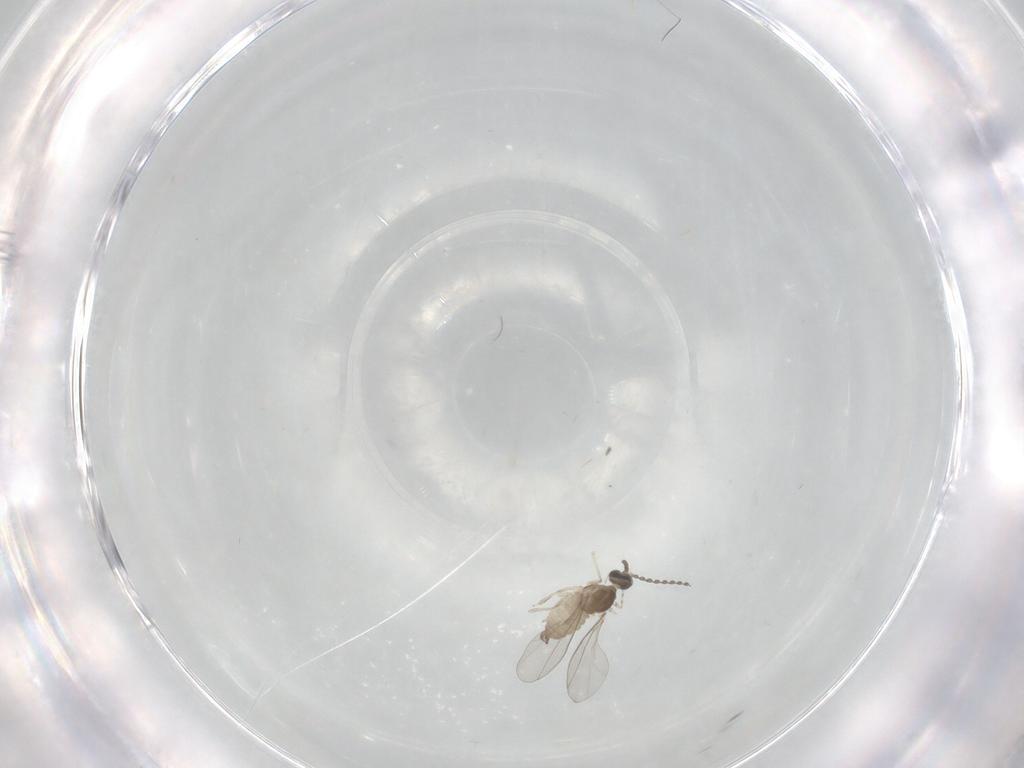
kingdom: Animalia
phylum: Arthropoda
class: Insecta
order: Diptera
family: Cecidomyiidae
